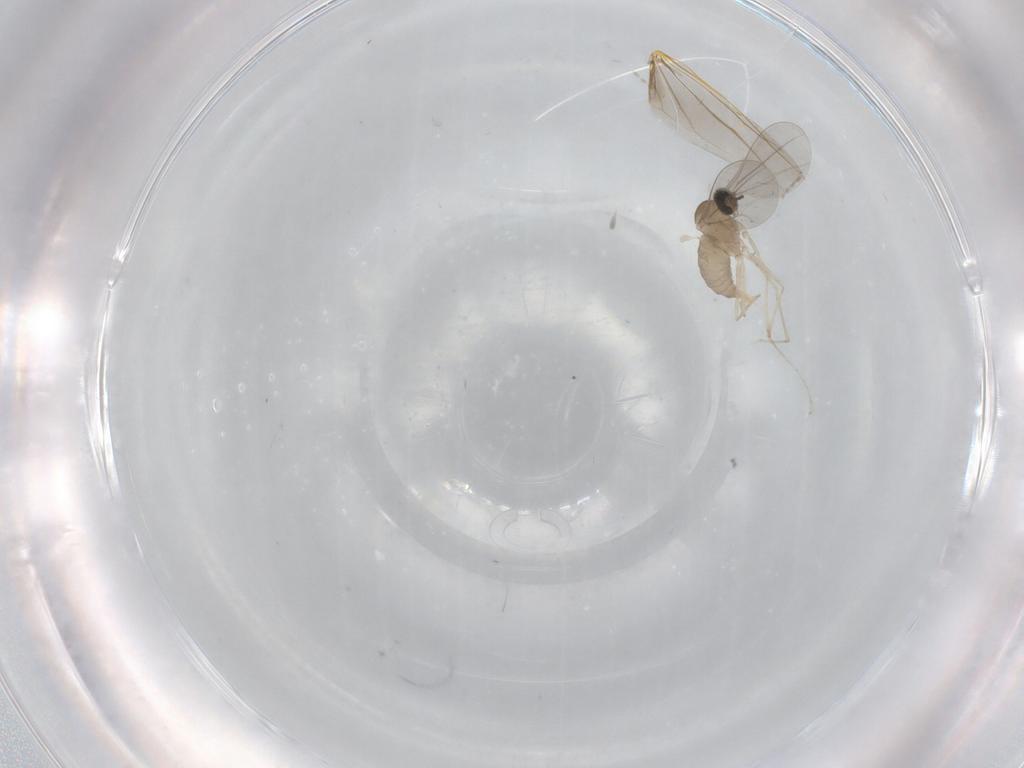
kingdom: Animalia
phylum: Arthropoda
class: Insecta
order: Diptera
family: Cecidomyiidae
